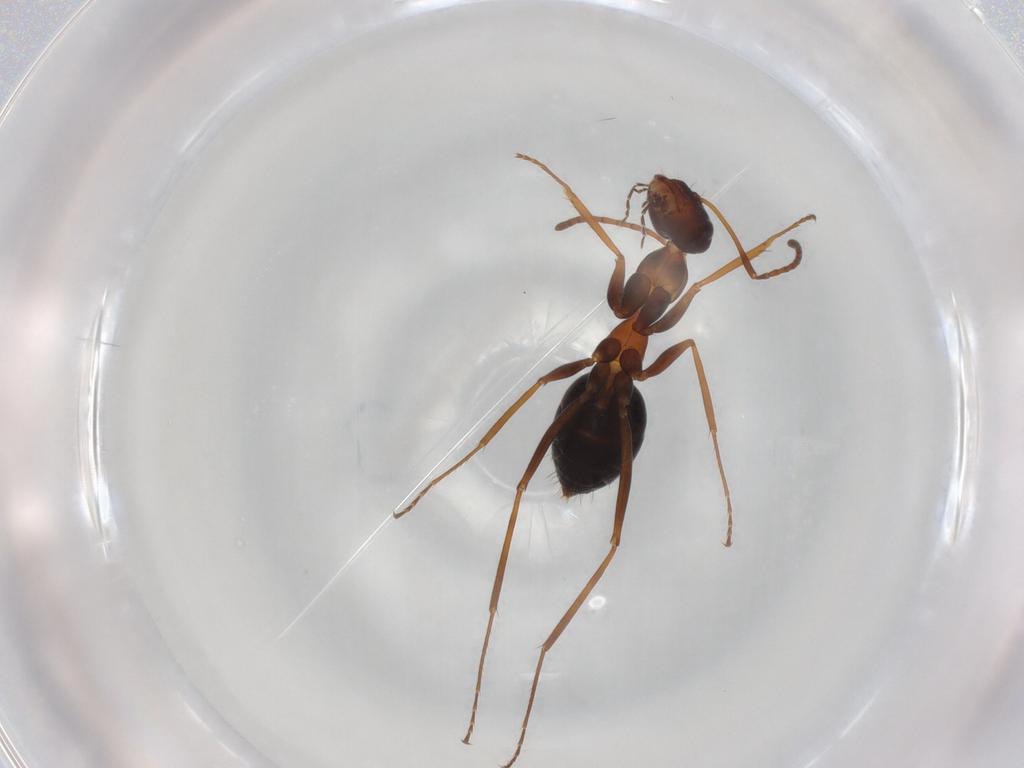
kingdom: Animalia
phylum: Arthropoda
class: Insecta
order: Hymenoptera
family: Formicidae
